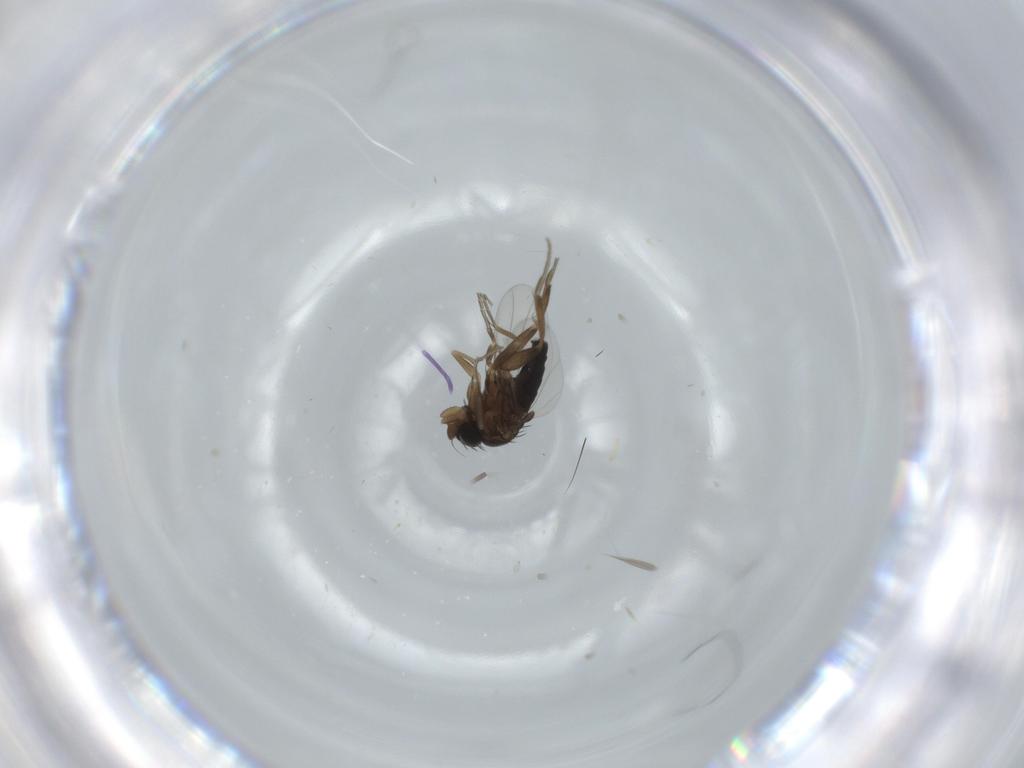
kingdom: Animalia
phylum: Arthropoda
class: Insecta
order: Diptera
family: Phoridae
